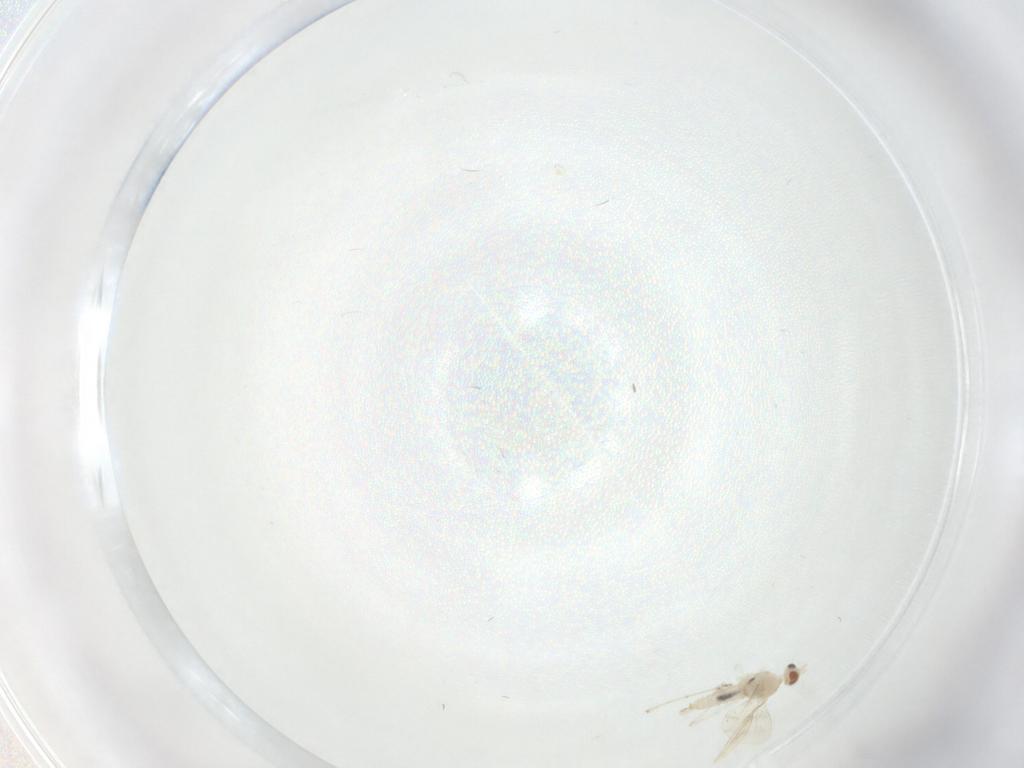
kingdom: Animalia
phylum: Arthropoda
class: Insecta
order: Diptera
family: Cecidomyiidae
